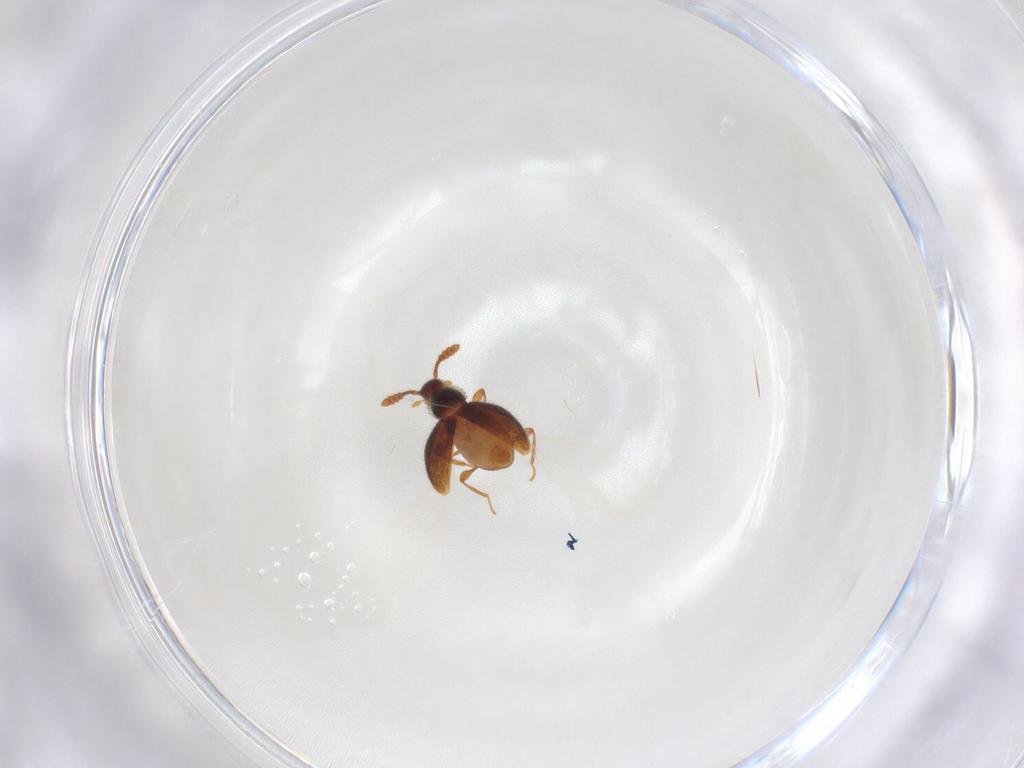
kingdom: Animalia
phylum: Arthropoda
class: Insecta
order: Coleoptera
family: Staphylinidae
